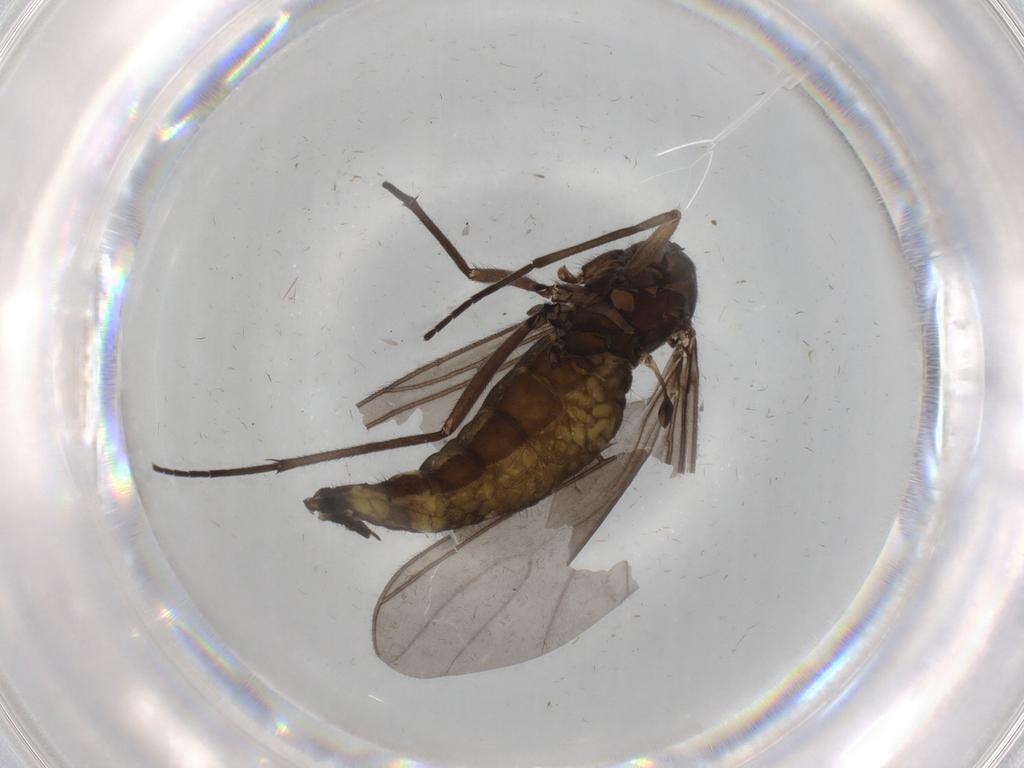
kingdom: Animalia
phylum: Arthropoda
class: Insecta
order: Diptera
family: Sciaridae
